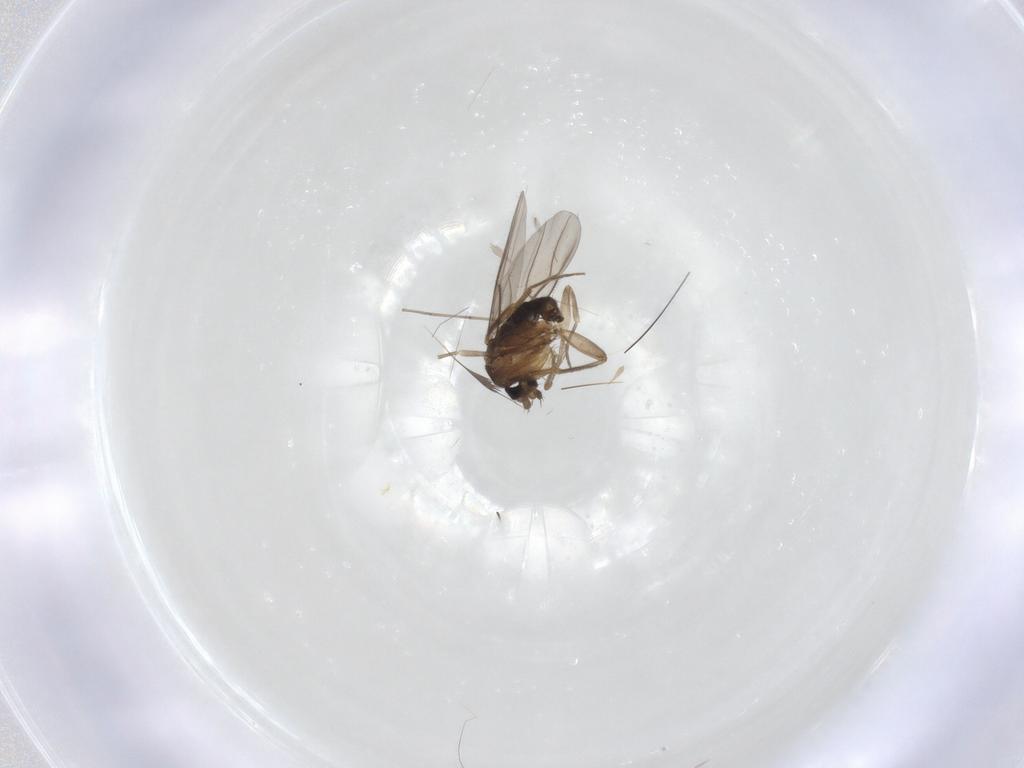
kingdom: Animalia
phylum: Arthropoda
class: Insecta
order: Diptera
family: Phoridae
